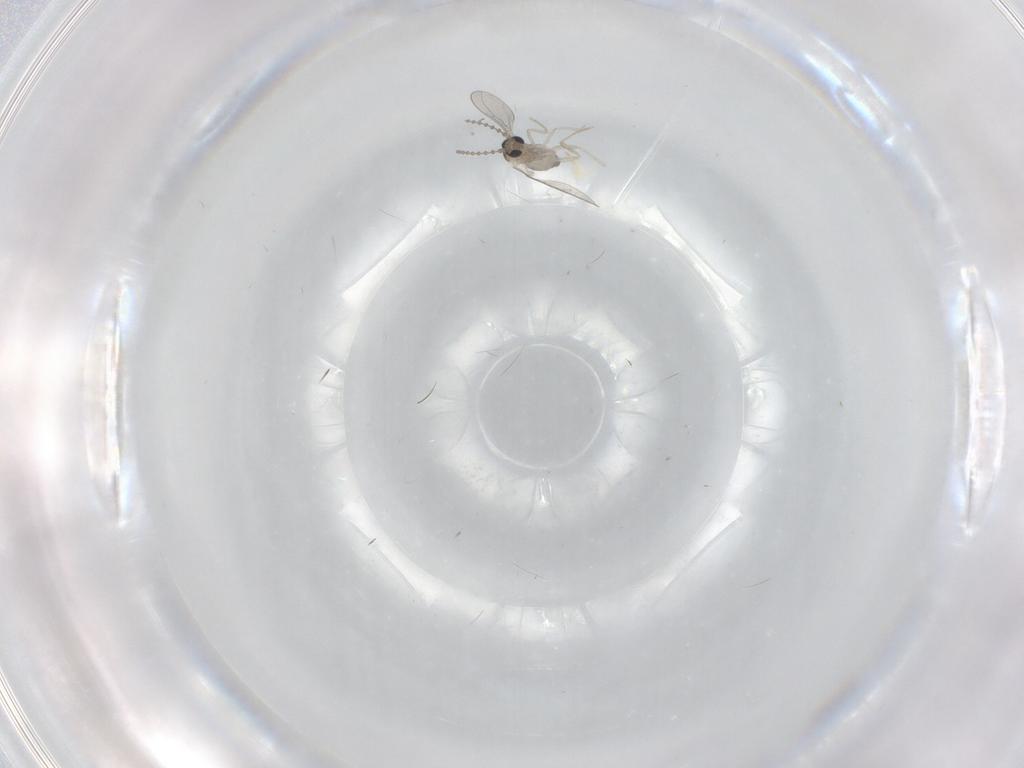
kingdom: Animalia
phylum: Arthropoda
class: Insecta
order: Diptera
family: Cecidomyiidae
